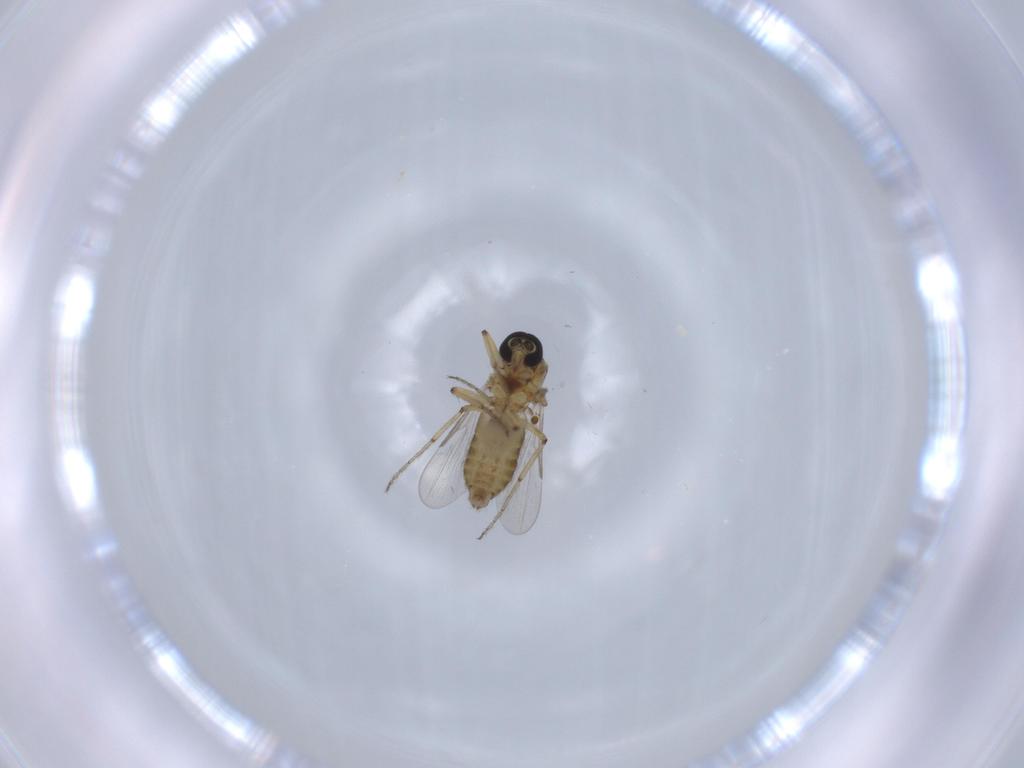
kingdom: Animalia
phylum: Arthropoda
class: Insecta
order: Diptera
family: Ceratopogonidae
